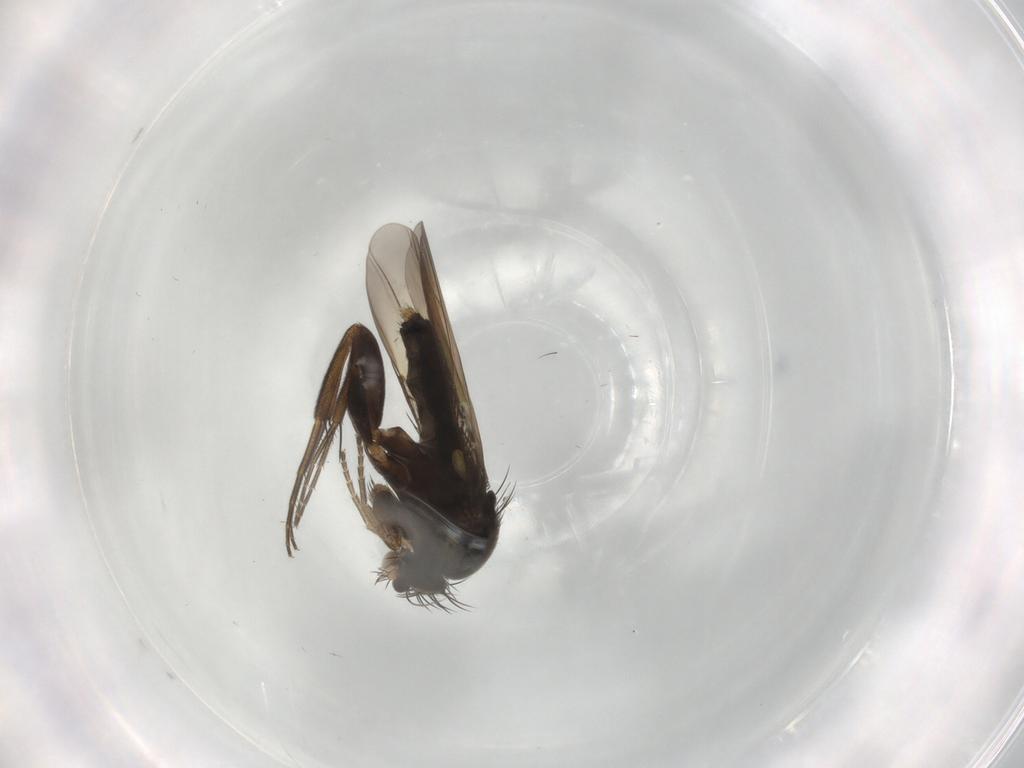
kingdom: Animalia
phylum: Arthropoda
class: Insecta
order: Diptera
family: Phoridae
